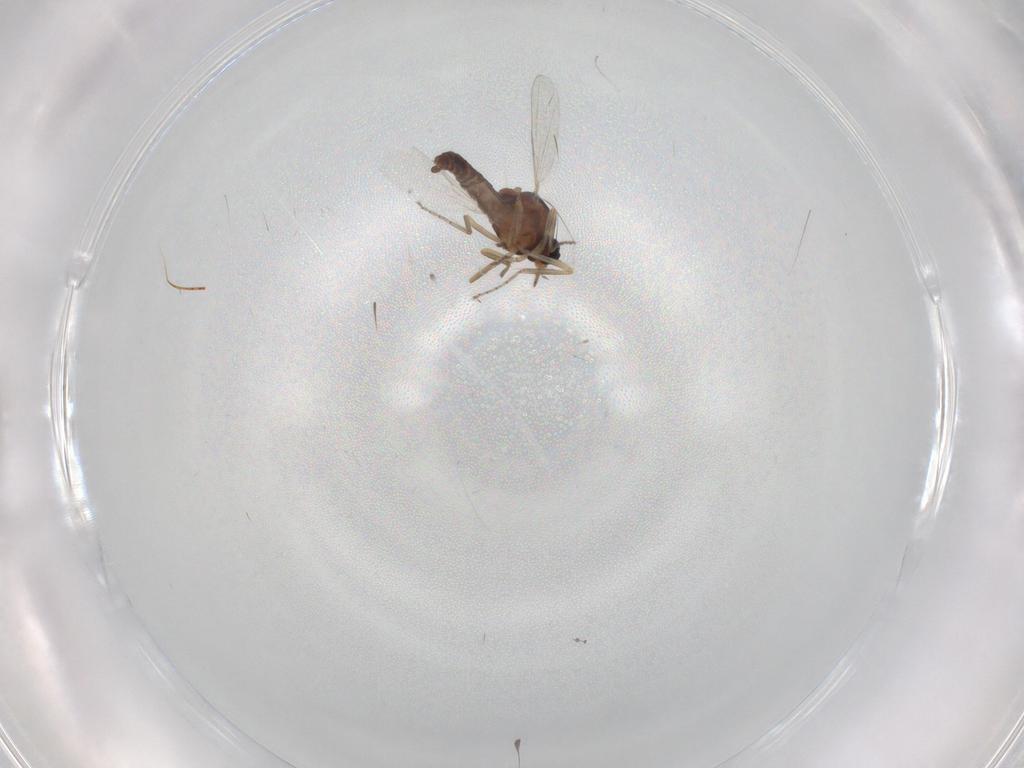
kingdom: Animalia
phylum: Arthropoda
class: Insecta
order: Diptera
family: Ceratopogonidae
